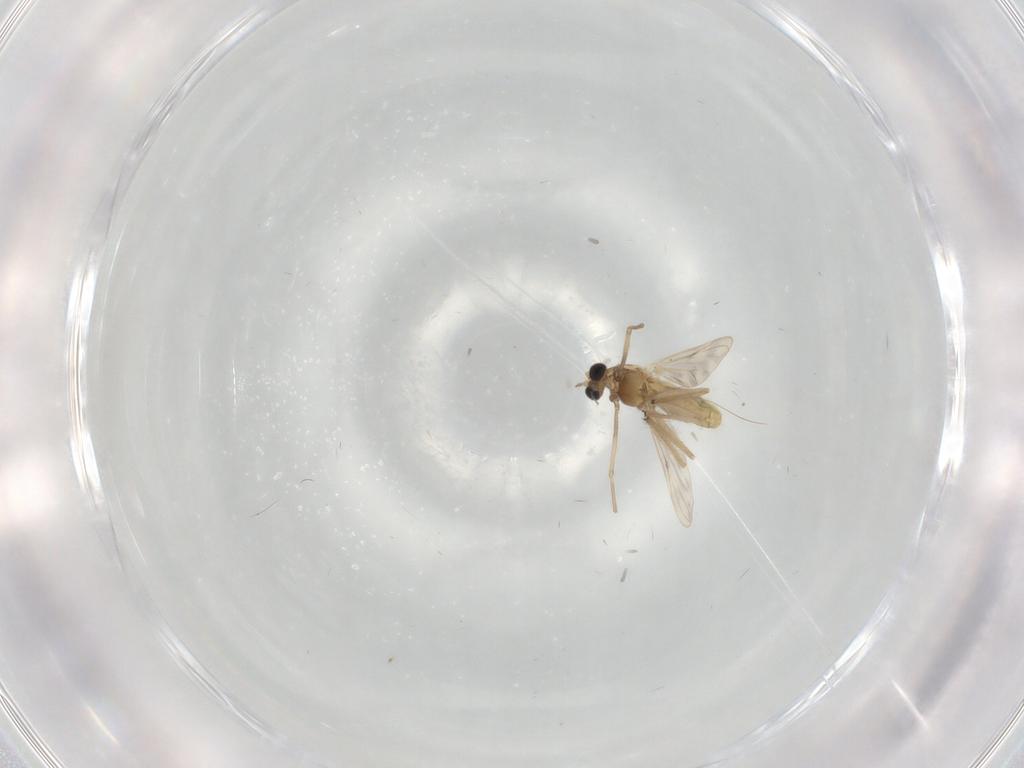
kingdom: Animalia
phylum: Arthropoda
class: Insecta
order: Diptera
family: Chironomidae
